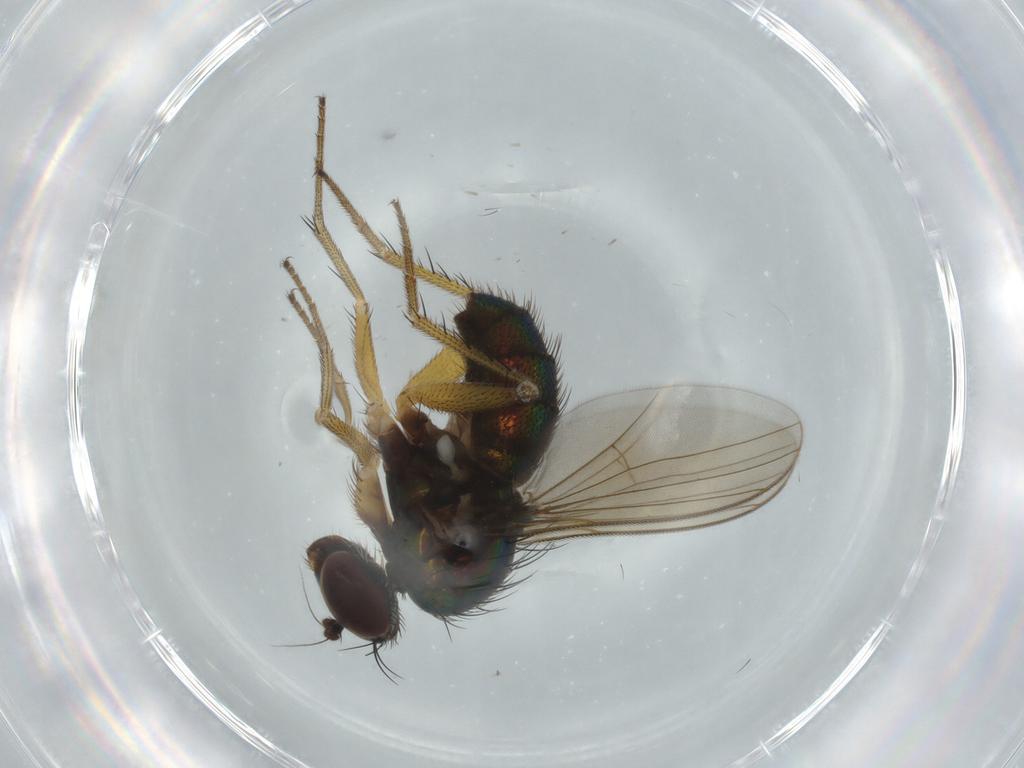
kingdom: Animalia
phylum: Arthropoda
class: Insecta
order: Diptera
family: Dolichopodidae
